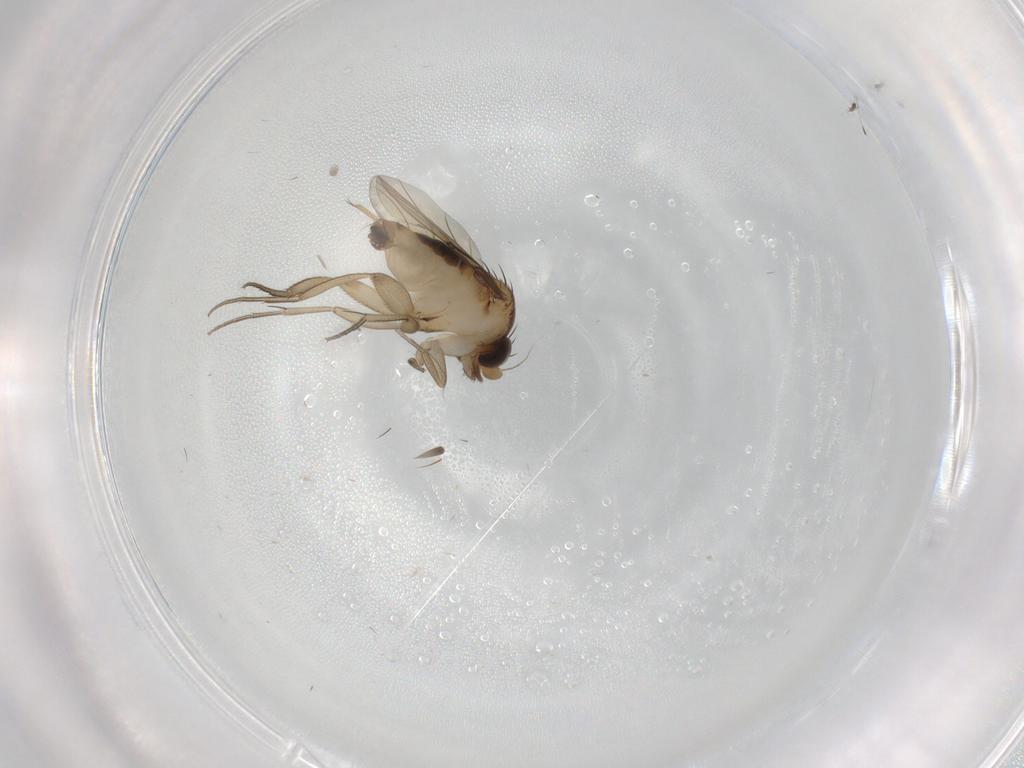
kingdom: Animalia
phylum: Arthropoda
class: Insecta
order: Diptera
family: Phoridae
